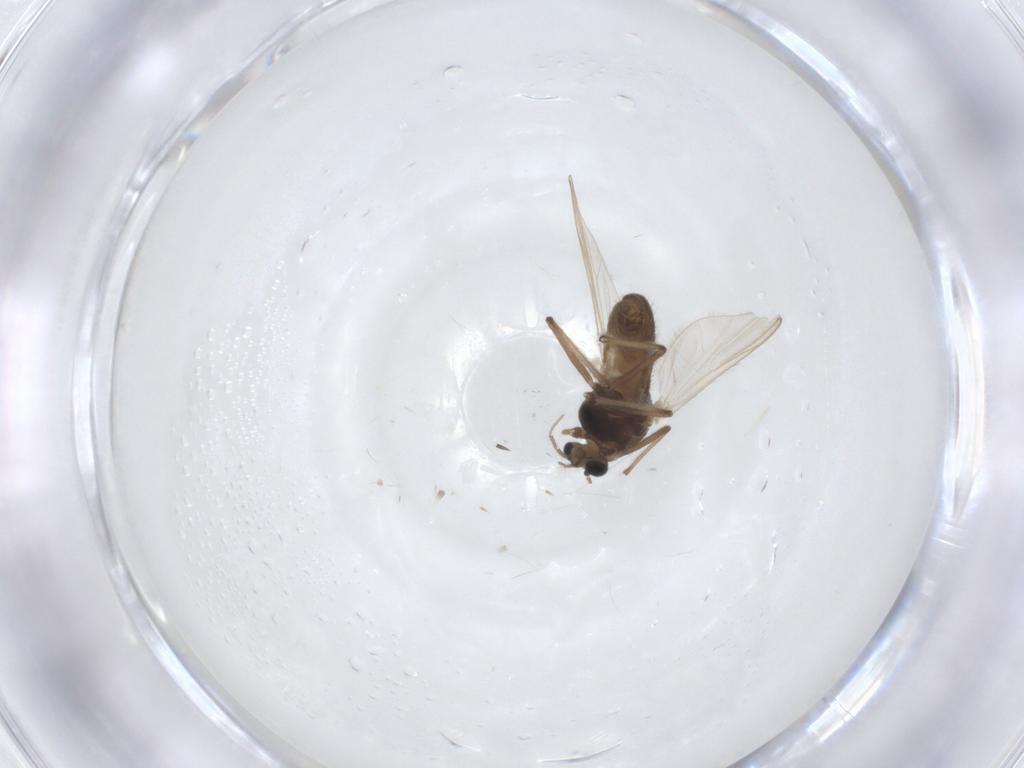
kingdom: Animalia
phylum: Arthropoda
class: Insecta
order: Diptera
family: Chironomidae
